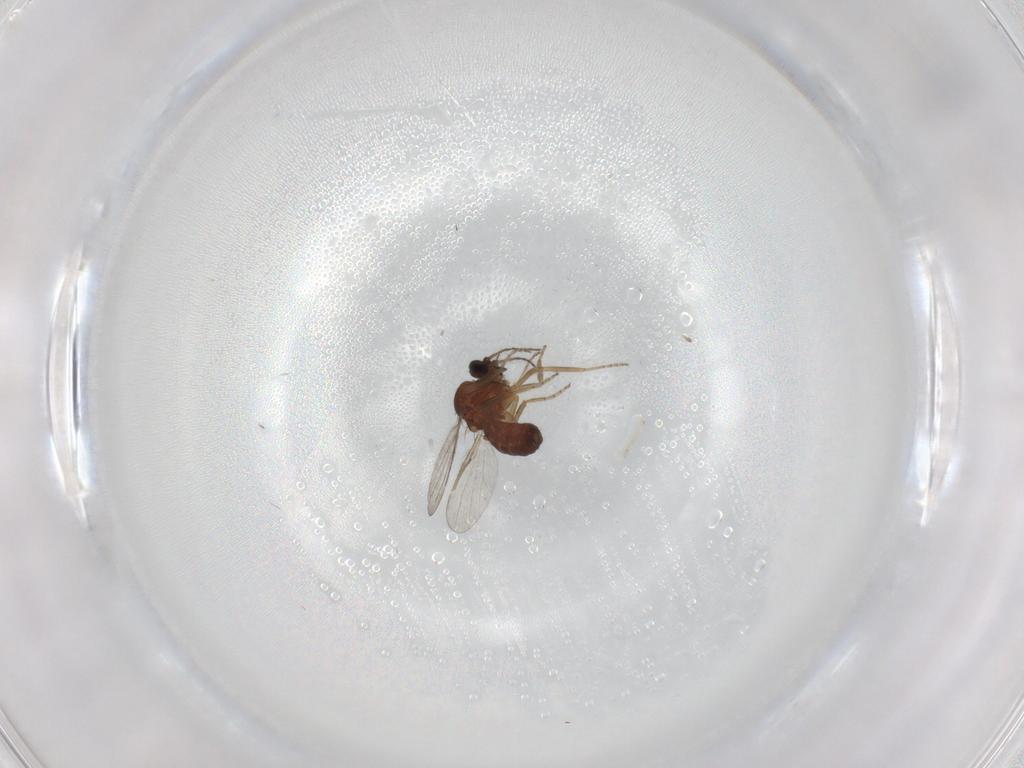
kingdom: Animalia
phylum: Arthropoda
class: Insecta
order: Diptera
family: Ceratopogonidae
